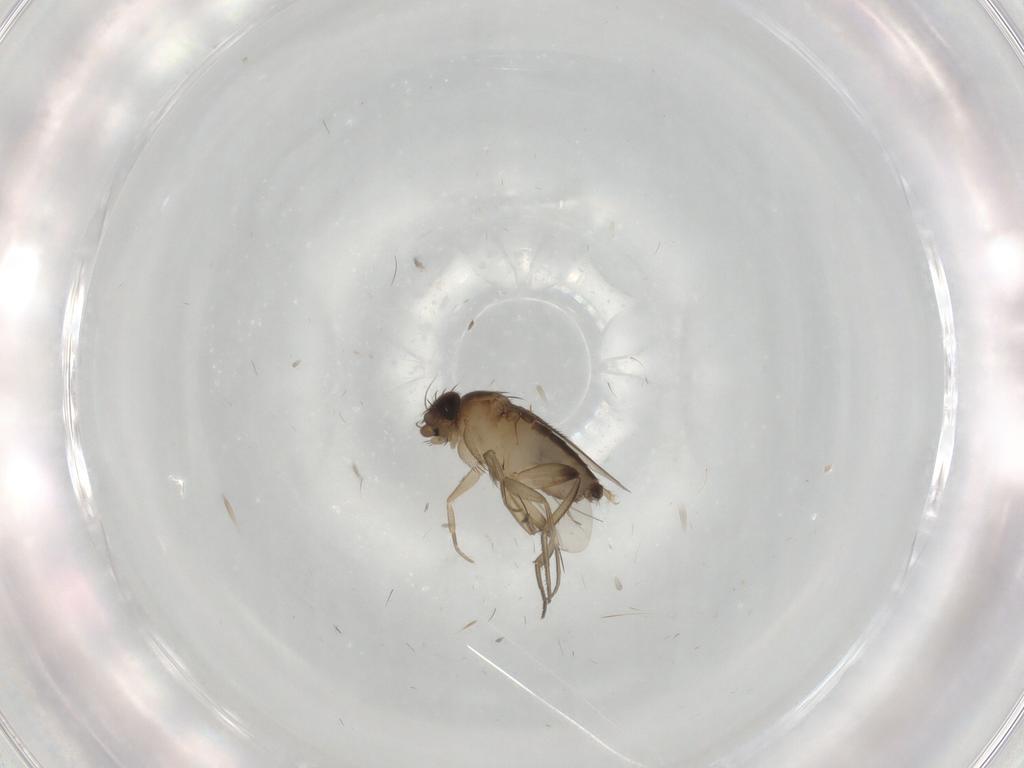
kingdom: Animalia
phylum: Arthropoda
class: Insecta
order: Diptera
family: Phoridae
